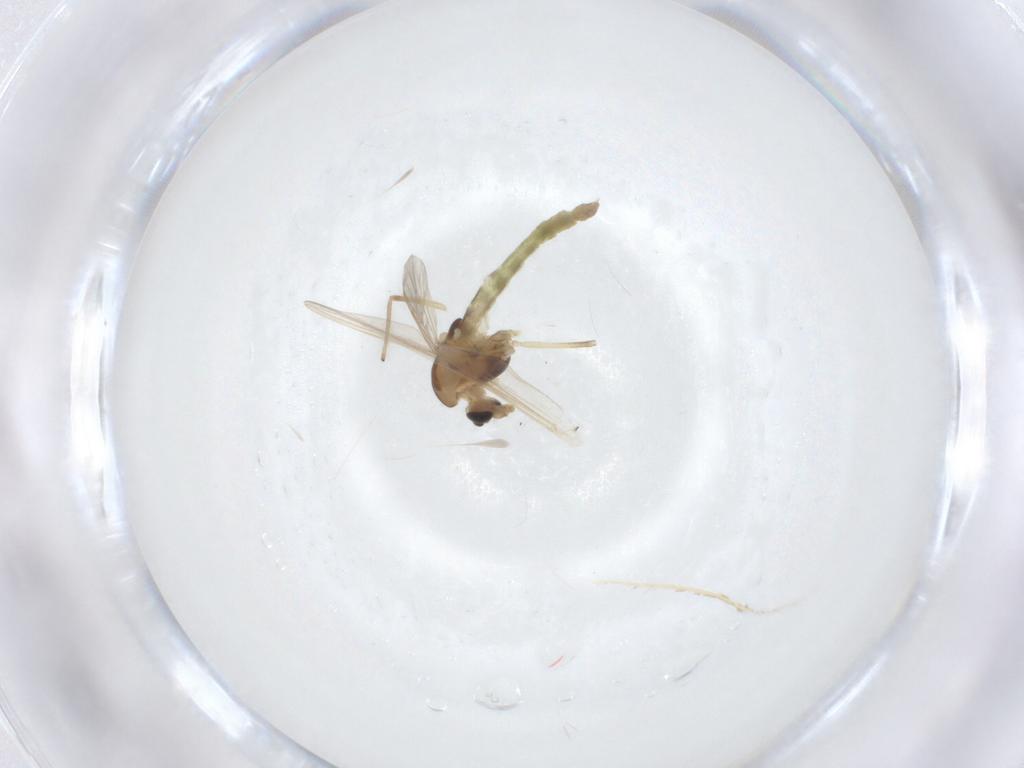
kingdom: Animalia
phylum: Arthropoda
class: Insecta
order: Diptera
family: Chironomidae
